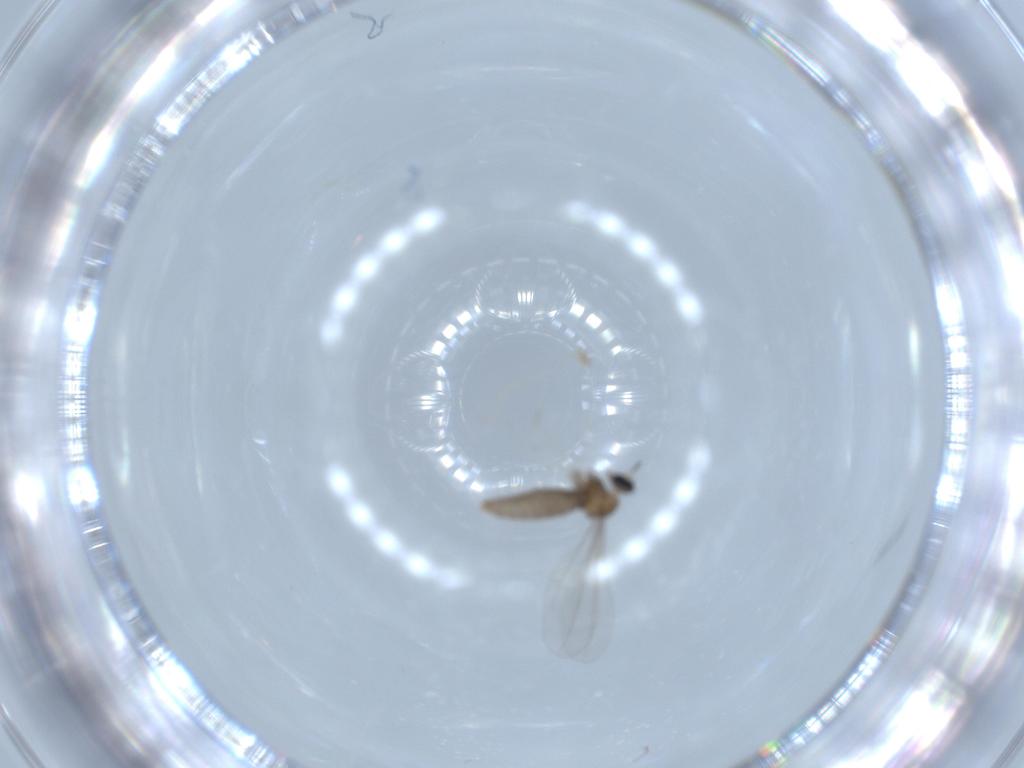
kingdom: Animalia
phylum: Arthropoda
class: Insecta
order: Diptera
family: Cecidomyiidae
